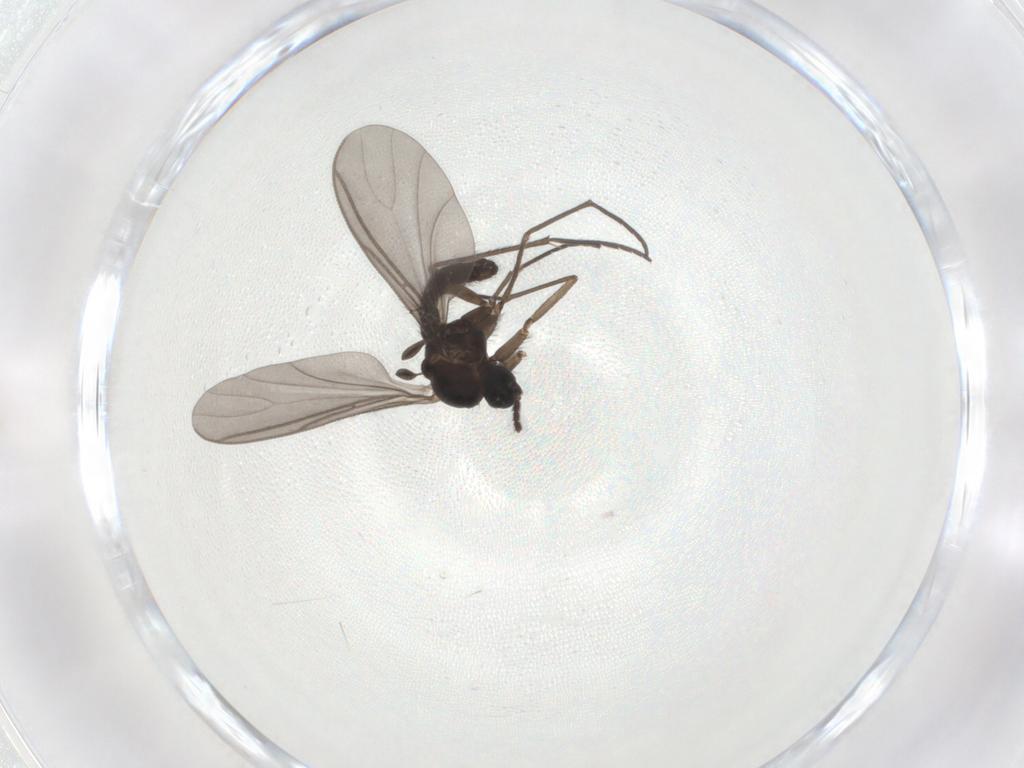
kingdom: Animalia
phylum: Arthropoda
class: Insecta
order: Diptera
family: Sciaridae
